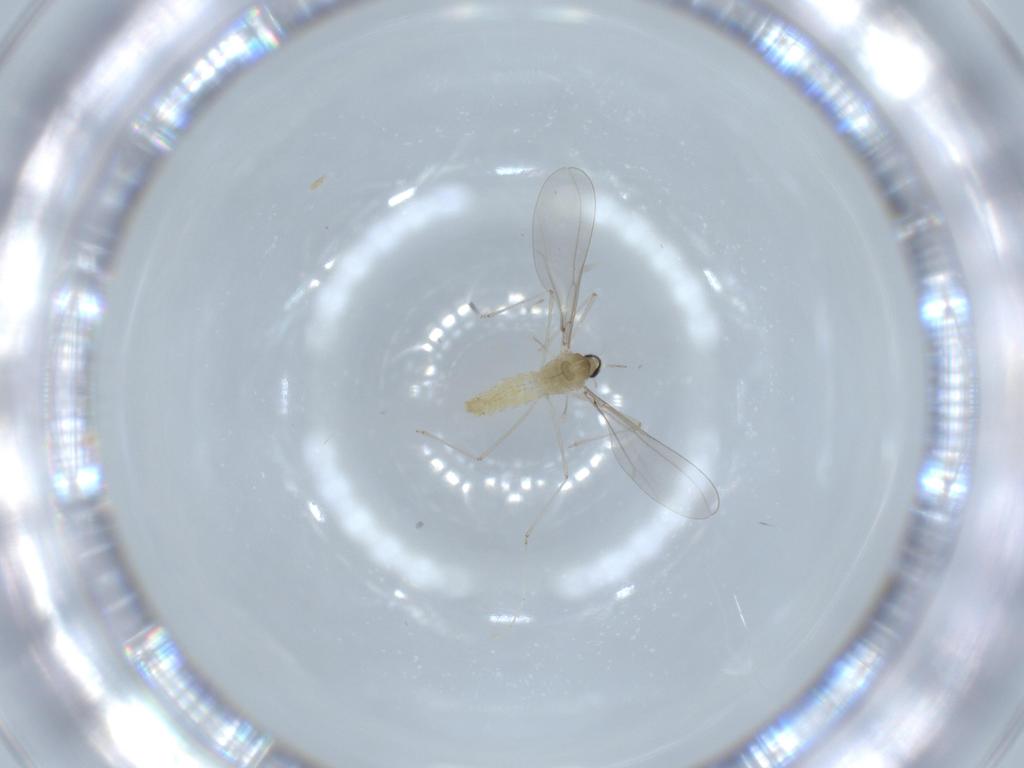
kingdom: Animalia
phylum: Arthropoda
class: Insecta
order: Diptera
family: Cecidomyiidae
